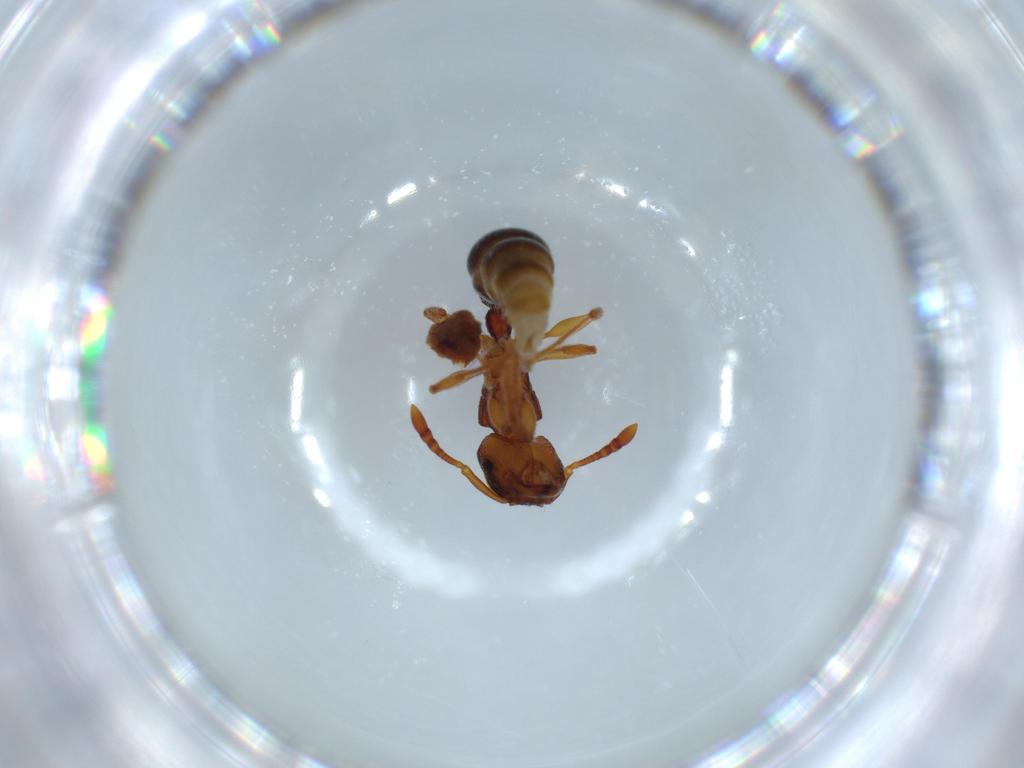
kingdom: Animalia
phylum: Arthropoda
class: Insecta
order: Hymenoptera
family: Formicidae
